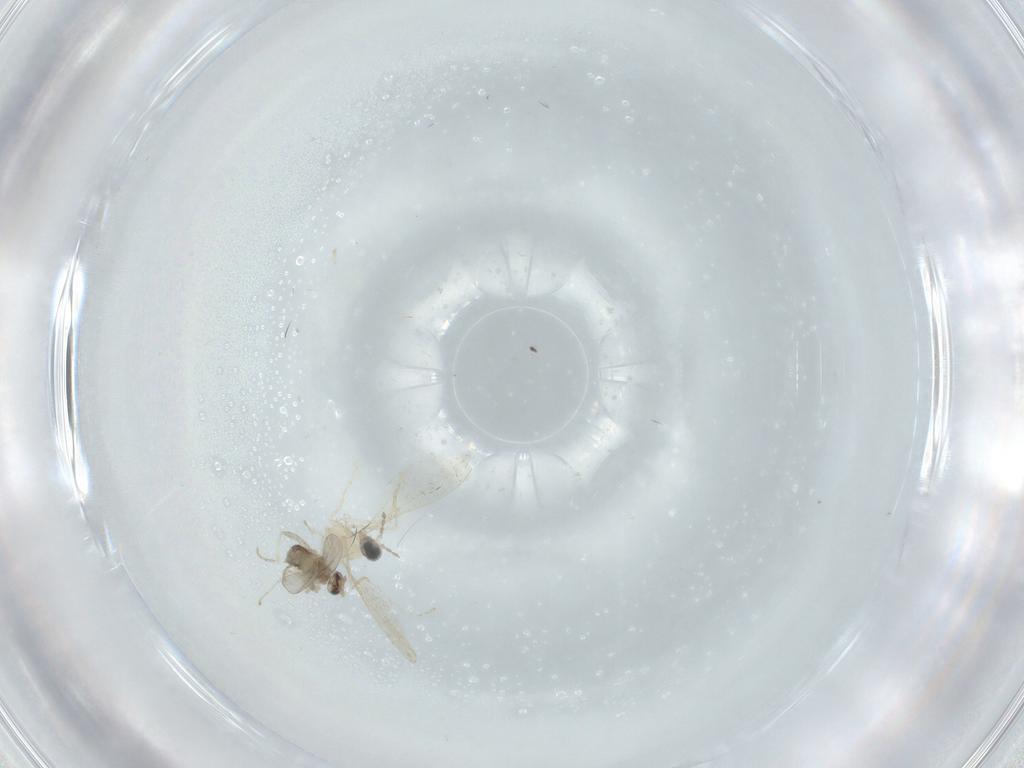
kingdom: Animalia
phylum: Arthropoda
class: Insecta
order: Diptera
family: Cecidomyiidae
